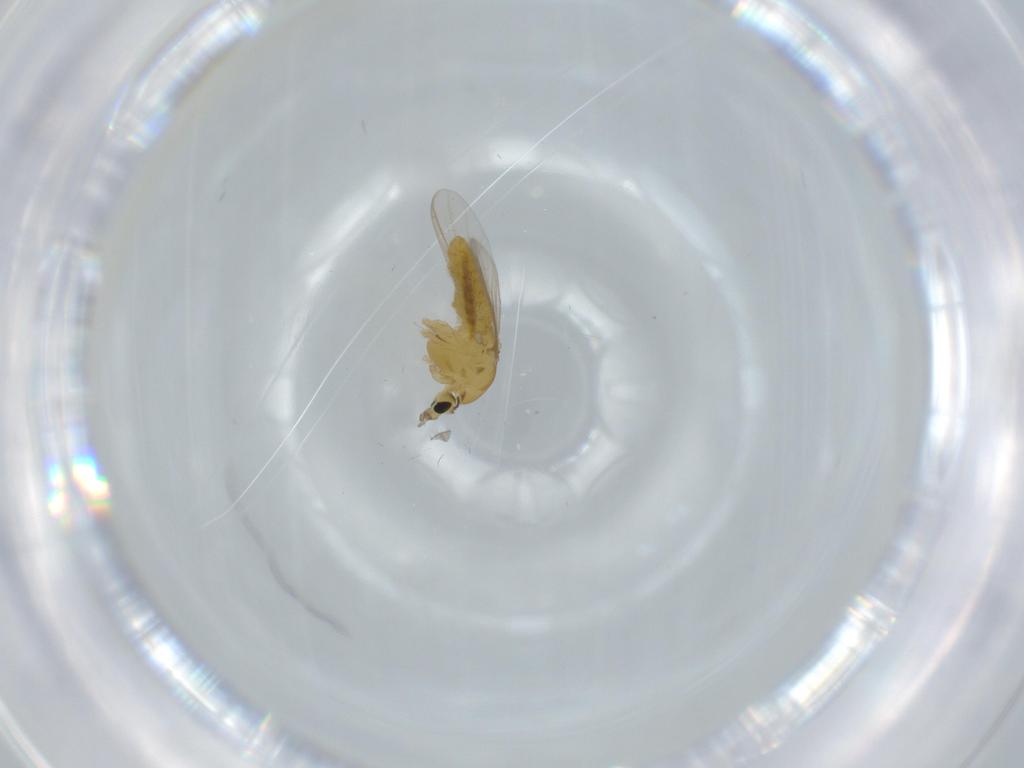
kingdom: Animalia
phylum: Arthropoda
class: Insecta
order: Diptera
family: Chironomidae
